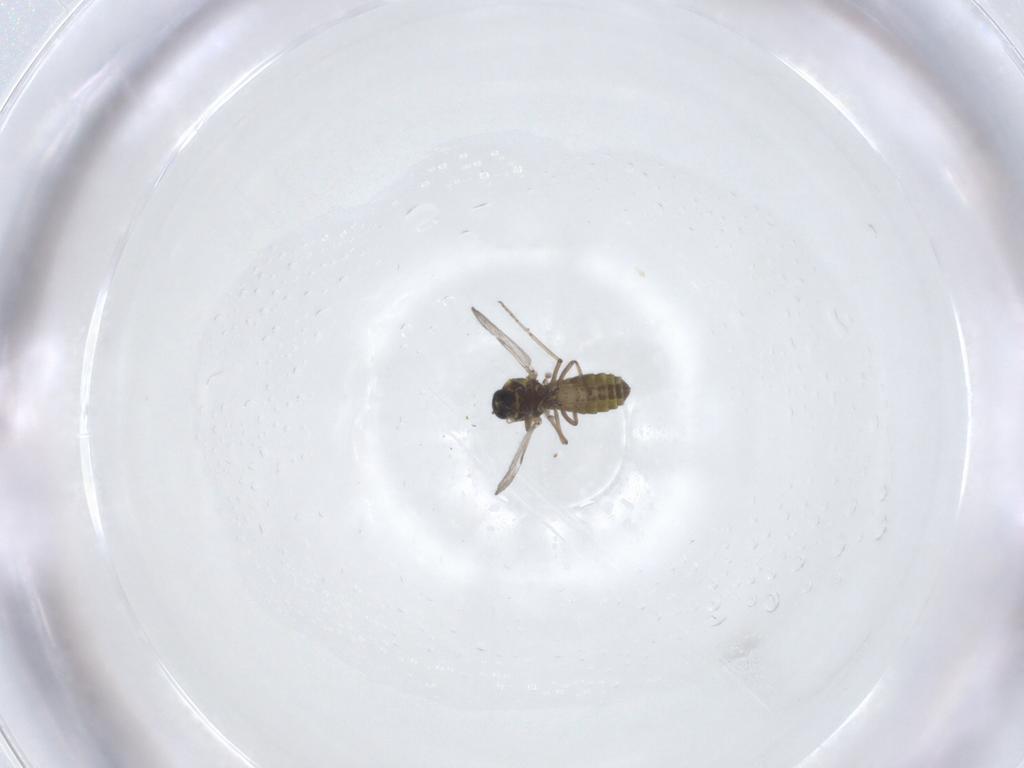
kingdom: Animalia
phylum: Arthropoda
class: Insecta
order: Diptera
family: Ceratopogonidae
